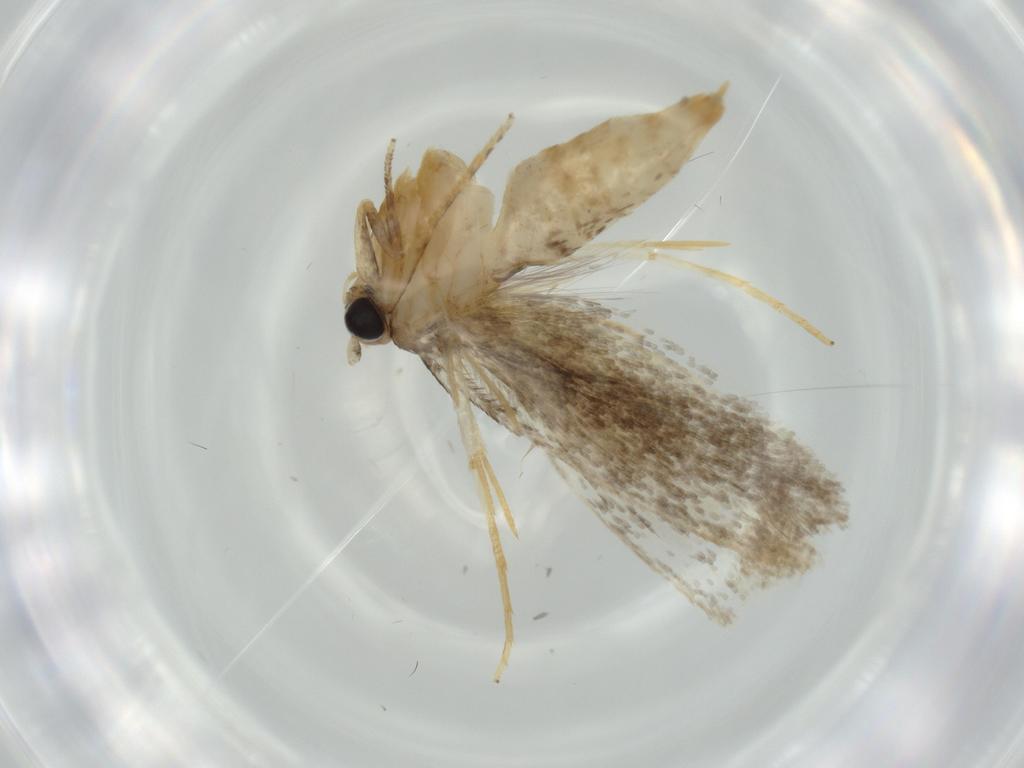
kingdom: Animalia
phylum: Arthropoda
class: Insecta
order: Lepidoptera
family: Tineidae
